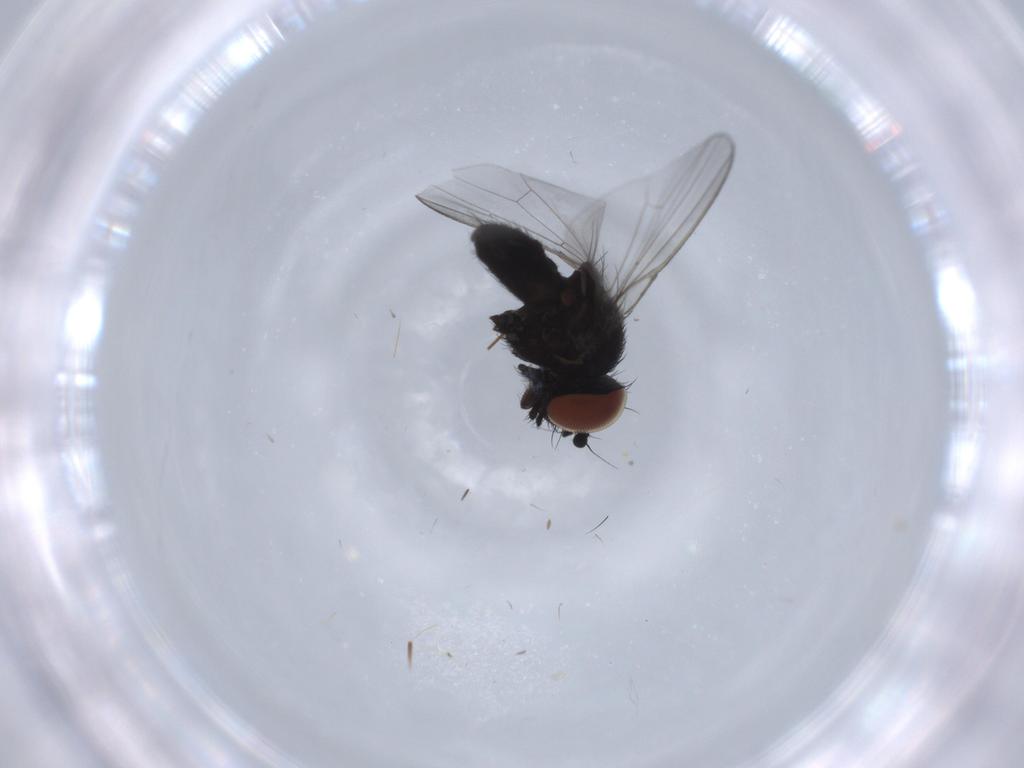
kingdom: Animalia
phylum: Arthropoda
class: Insecta
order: Diptera
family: Milichiidae
